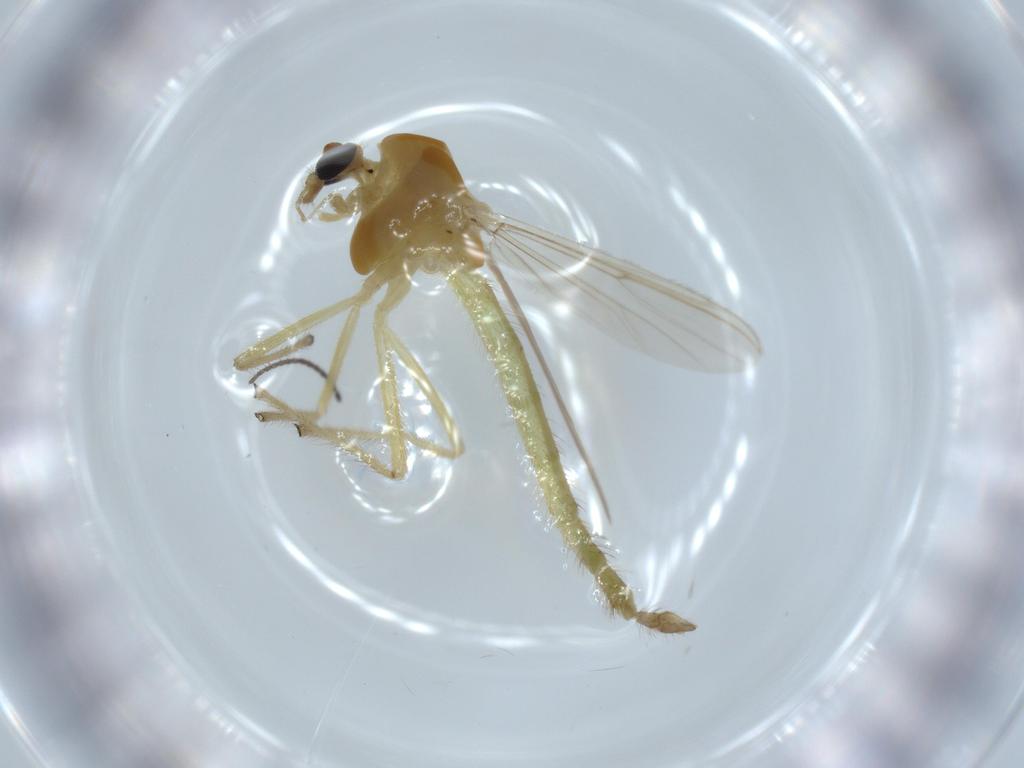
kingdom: Animalia
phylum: Arthropoda
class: Insecta
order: Diptera
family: Chironomidae
